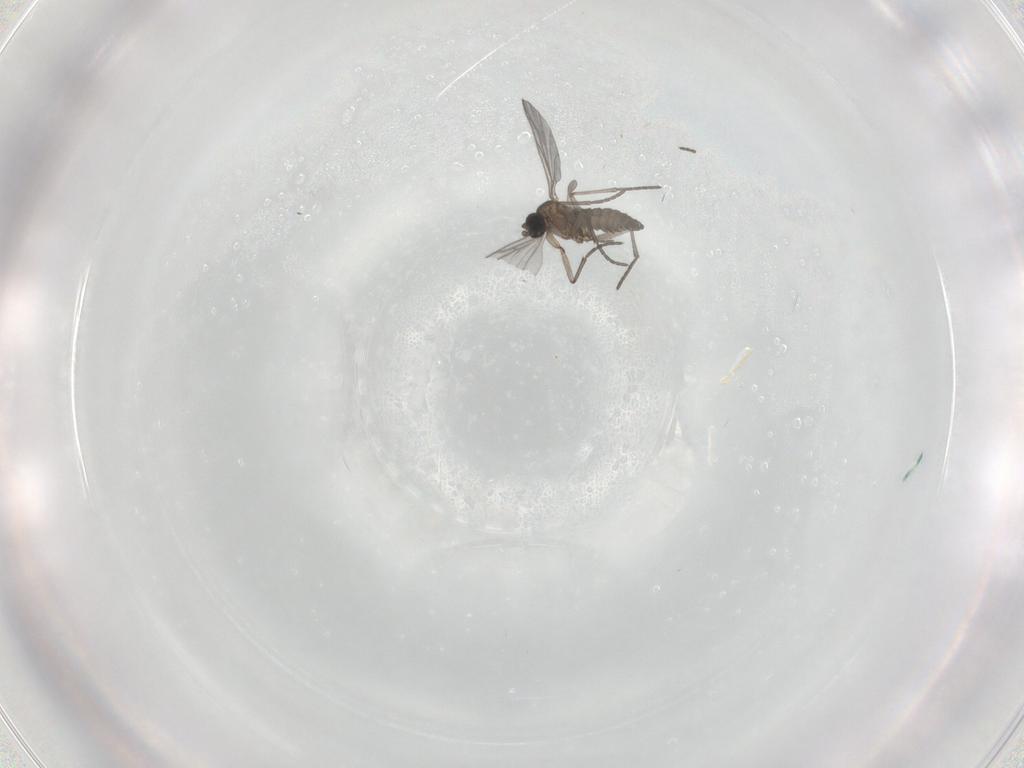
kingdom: Animalia
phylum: Arthropoda
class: Insecta
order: Diptera
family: Sciaridae
